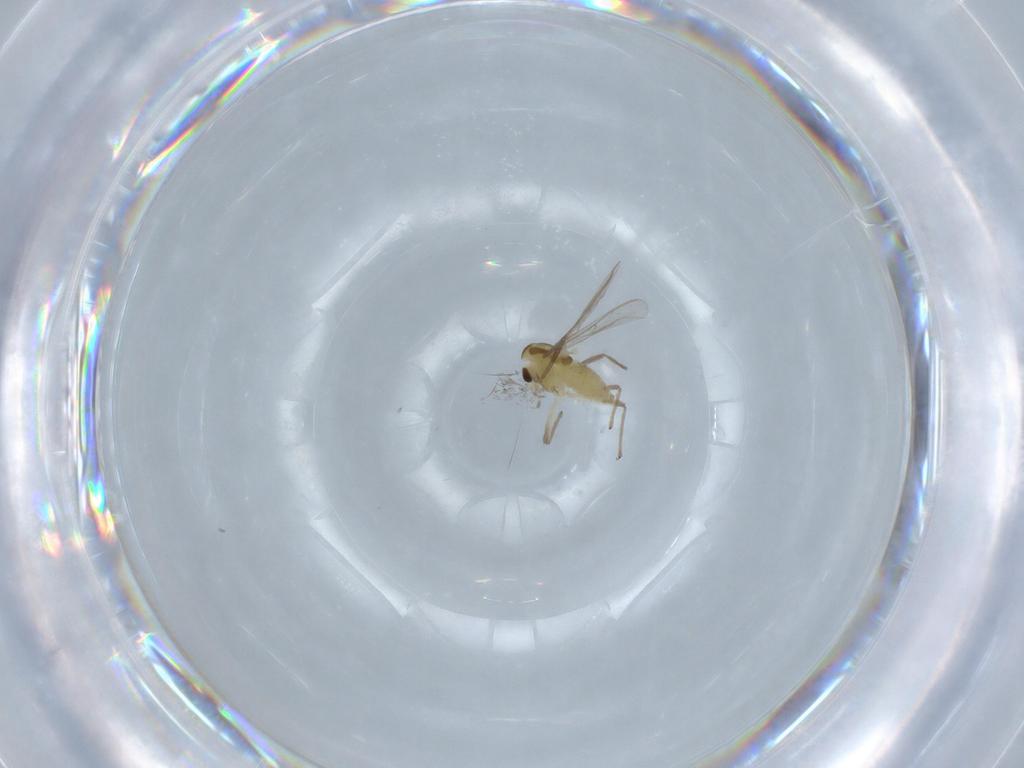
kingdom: Animalia
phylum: Arthropoda
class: Insecta
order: Diptera
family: Chironomidae
